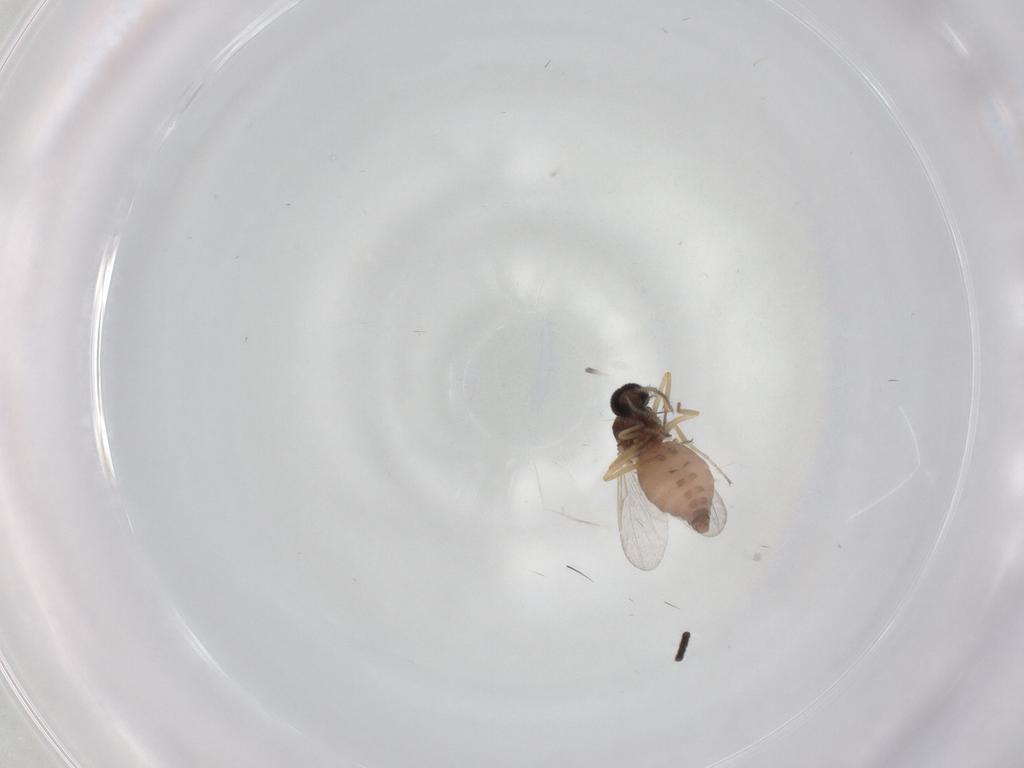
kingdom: Animalia
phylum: Arthropoda
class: Insecta
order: Diptera
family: Ceratopogonidae
